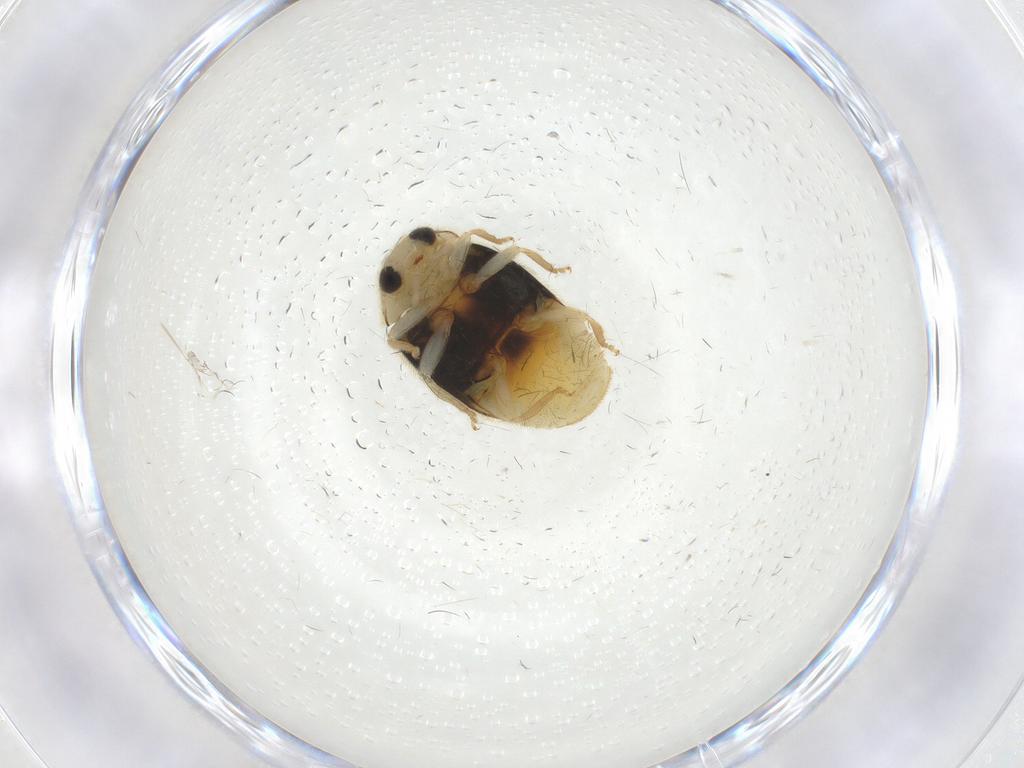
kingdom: Animalia
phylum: Arthropoda
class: Insecta
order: Coleoptera
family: Coccinellidae
